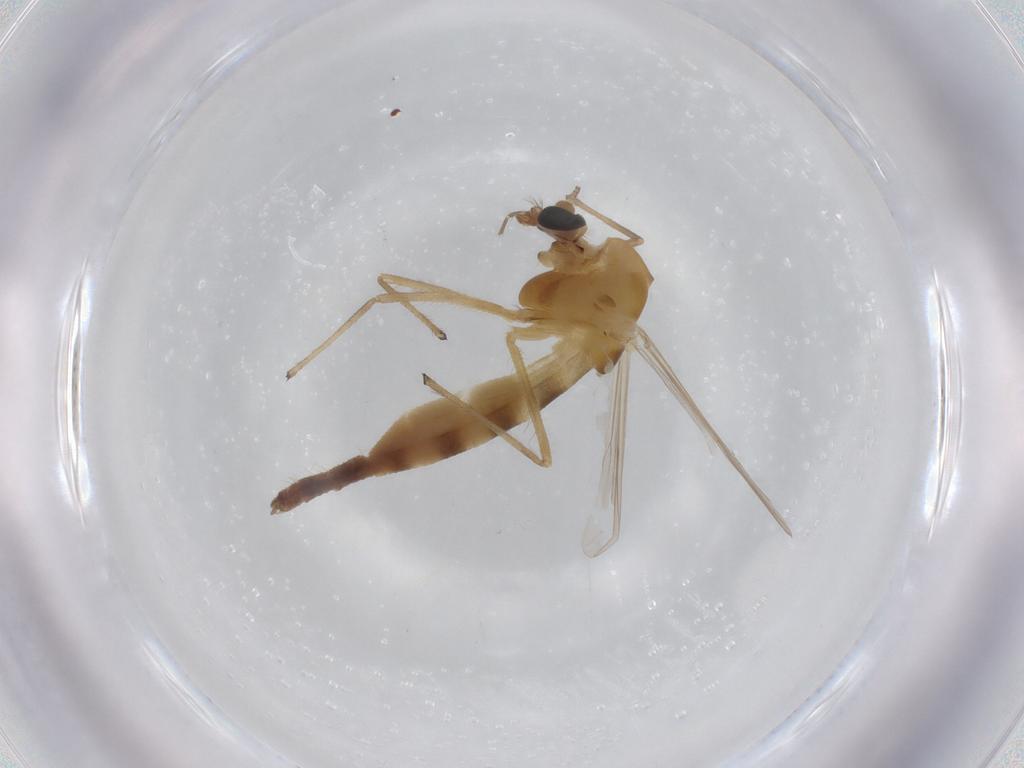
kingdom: Animalia
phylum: Arthropoda
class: Insecta
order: Diptera
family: Chironomidae
